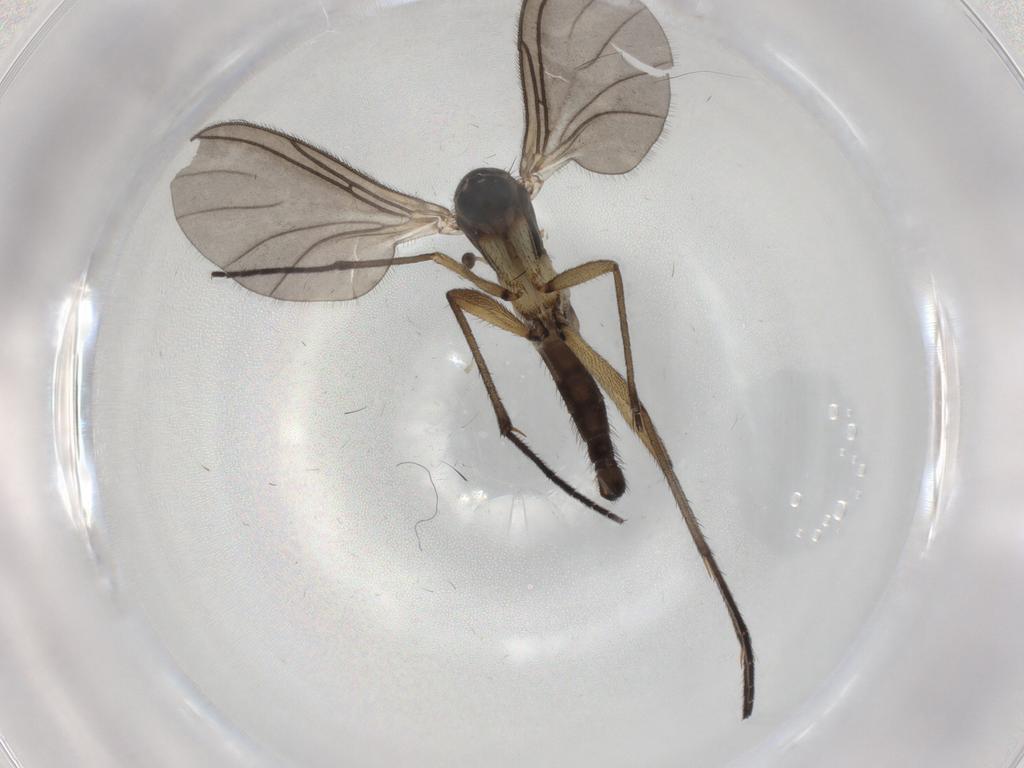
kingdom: Animalia
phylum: Arthropoda
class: Insecta
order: Diptera
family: Sciaridae
